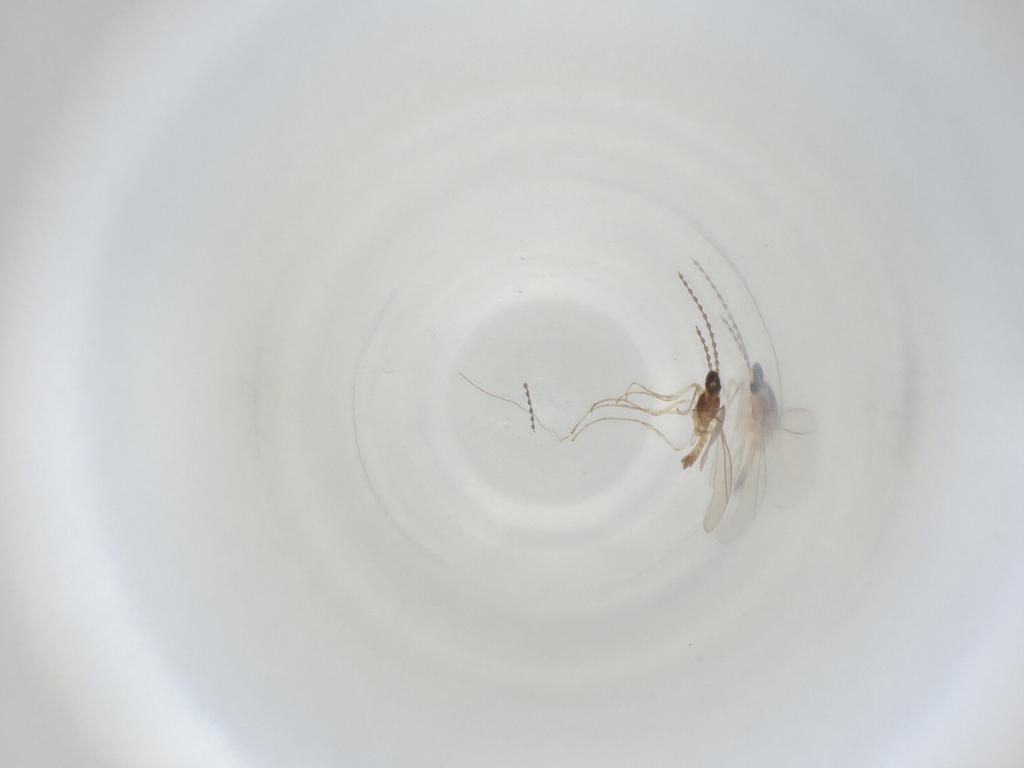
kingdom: Animalia
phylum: Arthropoda
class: Insecta
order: Diptera
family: Cecidomyiidae
